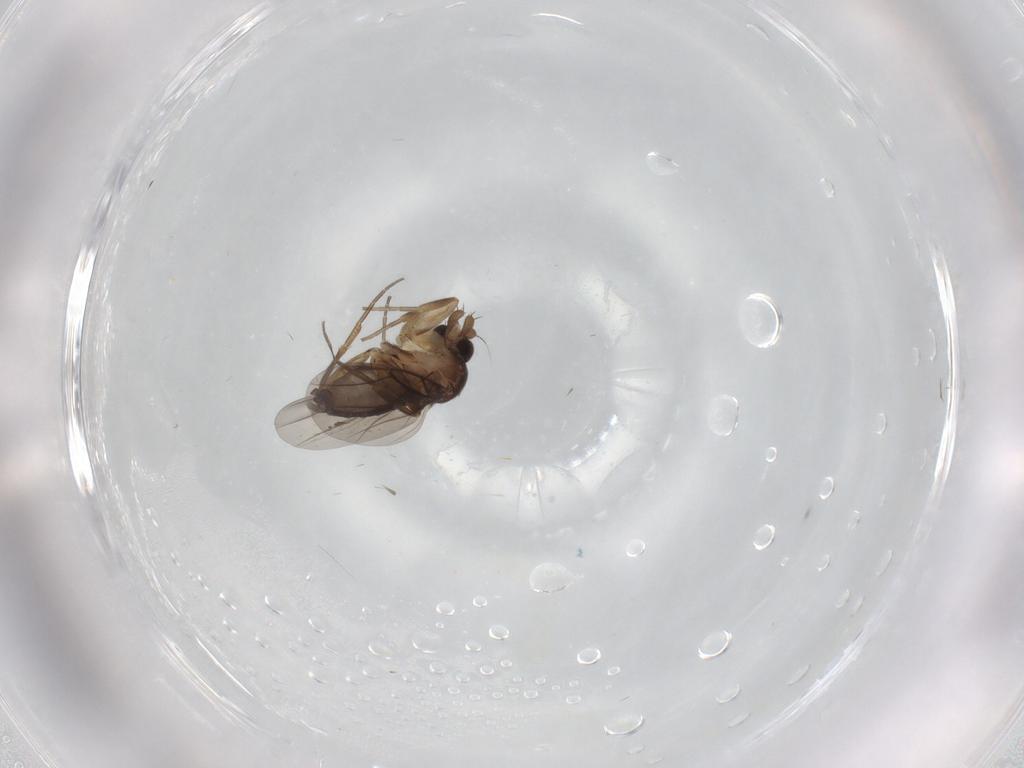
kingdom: Animalia
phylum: Arthropoda
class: Insecta
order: Diptera
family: Phoridae
